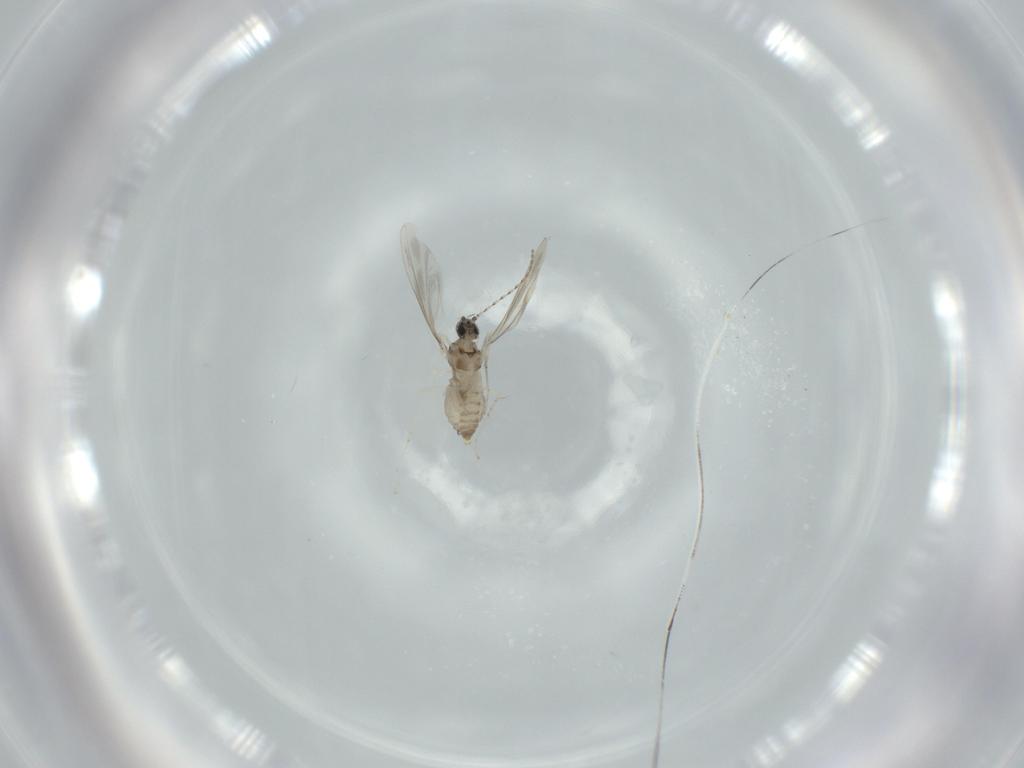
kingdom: Animalia
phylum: Arthropoda
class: Insecta
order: Diptera
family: Cecidomyiidae
